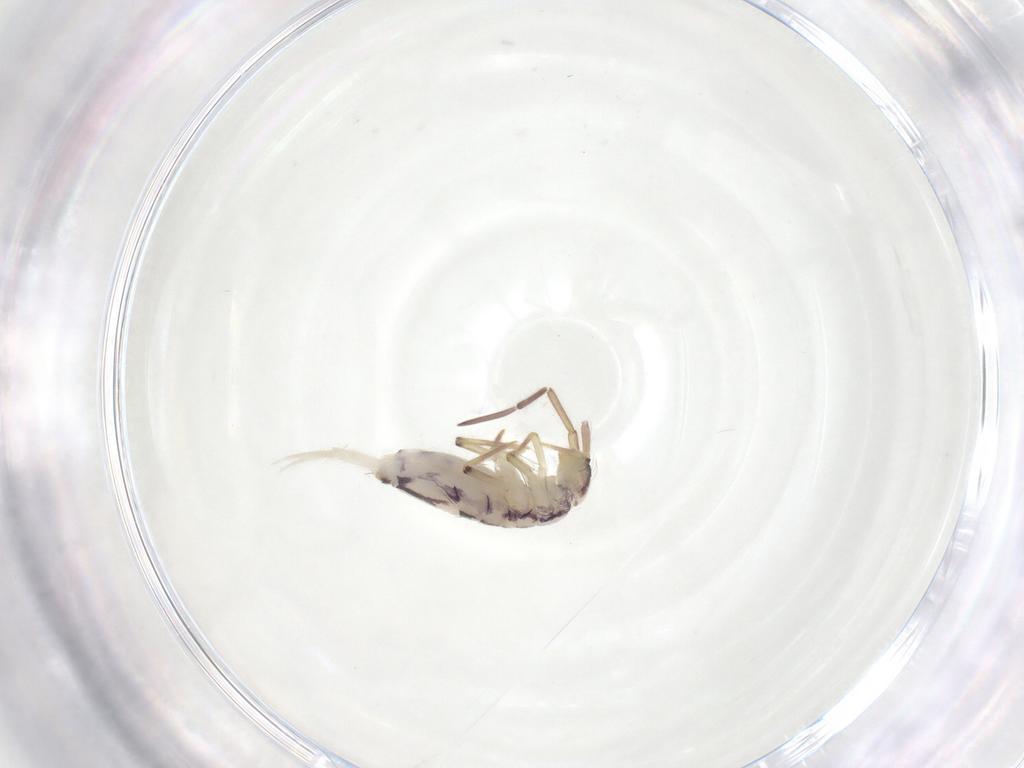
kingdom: Animalia
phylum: Arthropoda
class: Collembola
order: Entomobryomorpha
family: Entomobryidae
